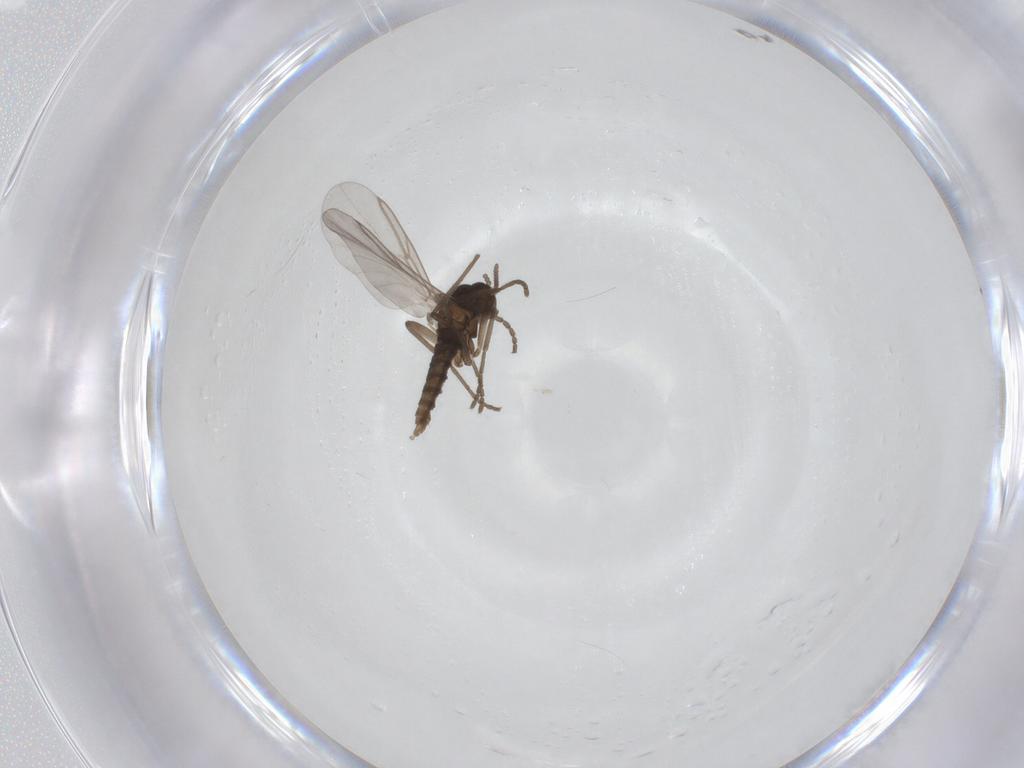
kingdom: Animalia
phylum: Arthropoda
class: Insecta
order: Diptera
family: Cecidomyiidae
